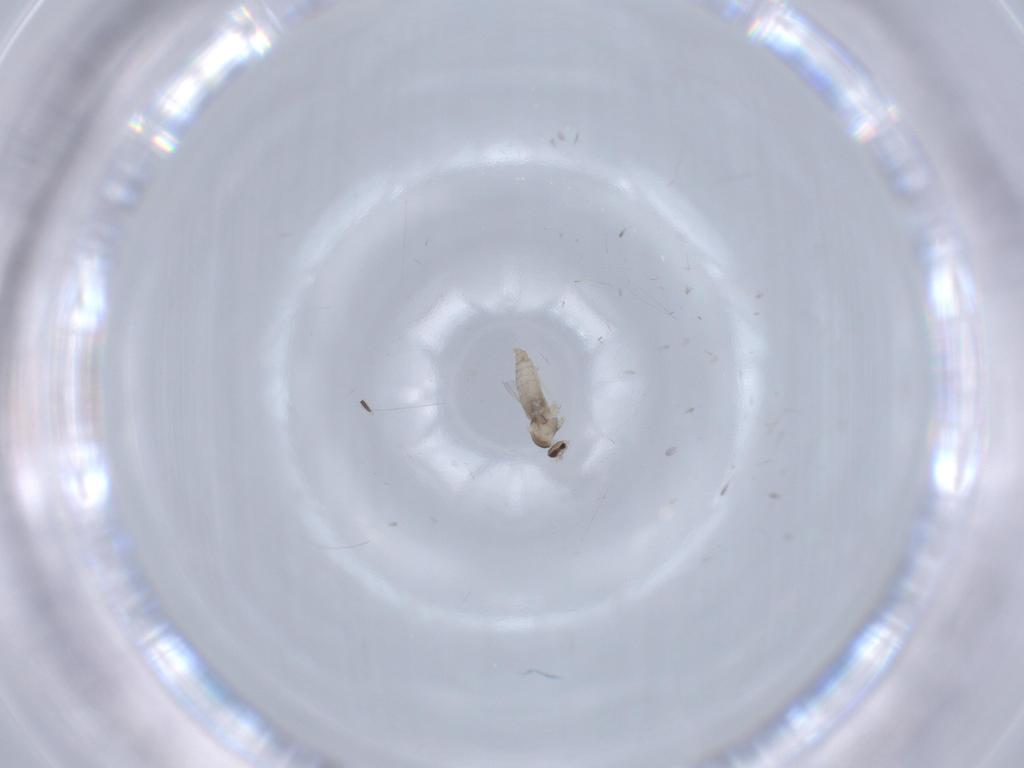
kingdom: Animalia
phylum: Arthropoda
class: Insecta
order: Diptera
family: Cecidomyiidae
